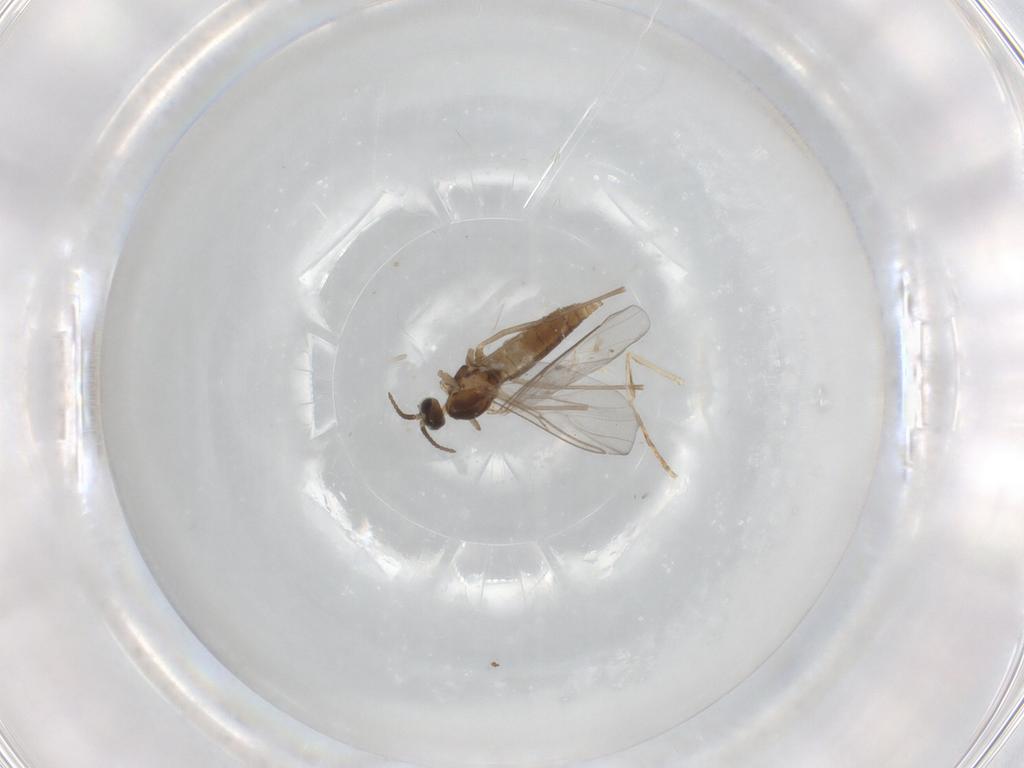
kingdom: Animalia
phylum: Arthropoda
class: Insecta
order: Diptera
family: Cecidomyiidae
